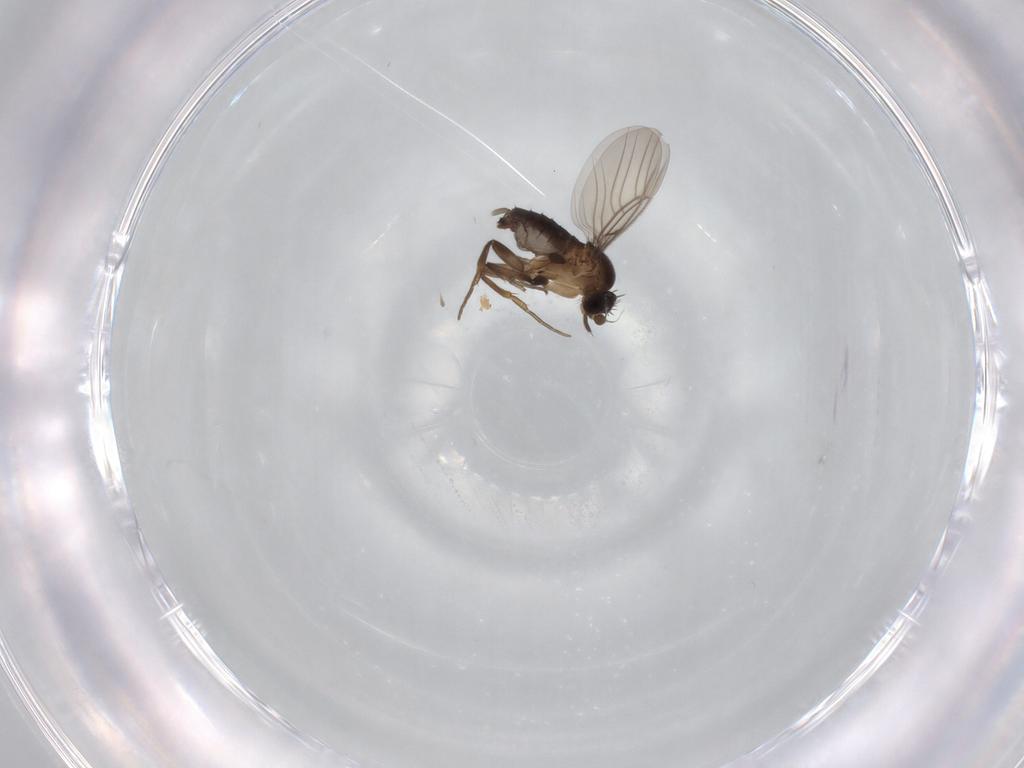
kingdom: Animalia
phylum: Arthropoda
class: Insecta
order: Diptera
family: Phoridae
